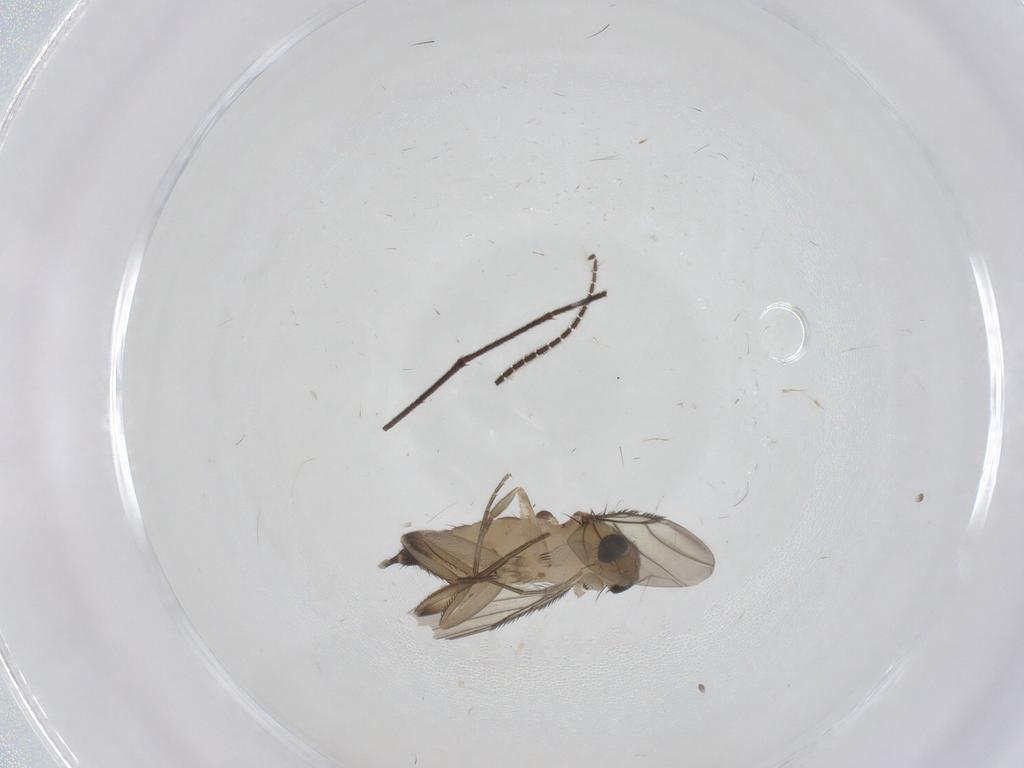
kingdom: Animalia
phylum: Arthropoda
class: Insecta
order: Diptera
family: Phoridae
